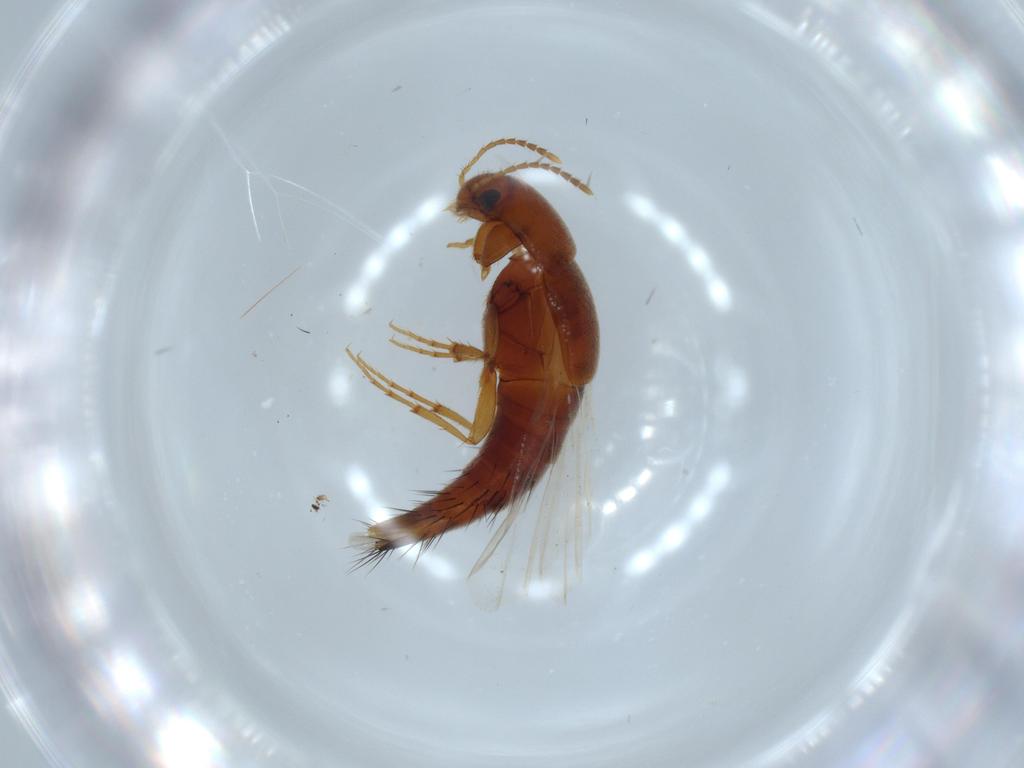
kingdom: Animalia
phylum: Arthropoda
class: Insecta
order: Coleoptera
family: Staphylinidae
